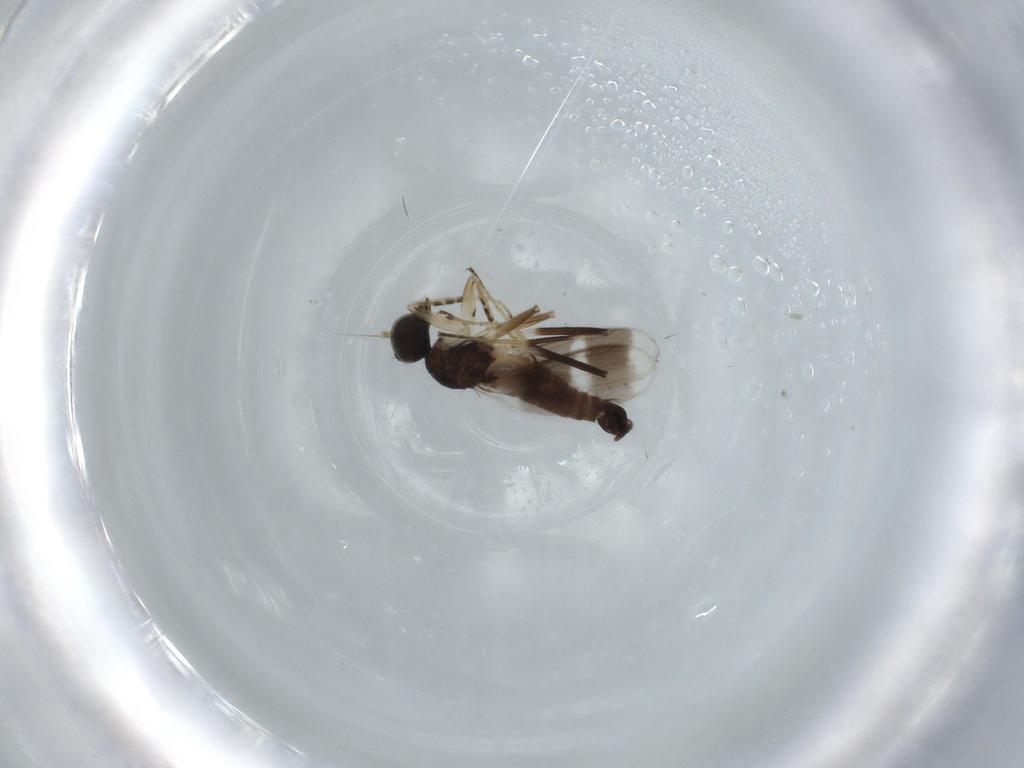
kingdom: Animalia
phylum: Arthropoda
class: Insecta
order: Diptera
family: Hybotidae
